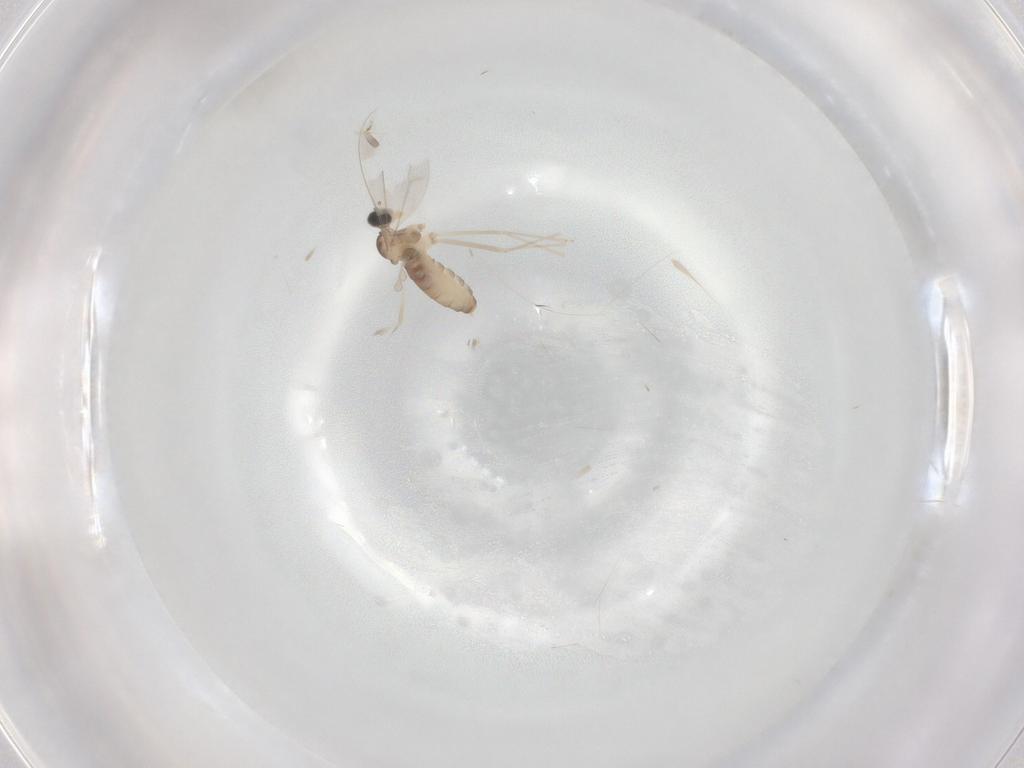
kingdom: Animalia
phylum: Arthropoda
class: Insecta
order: Diptera
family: Cecidomyiidae
